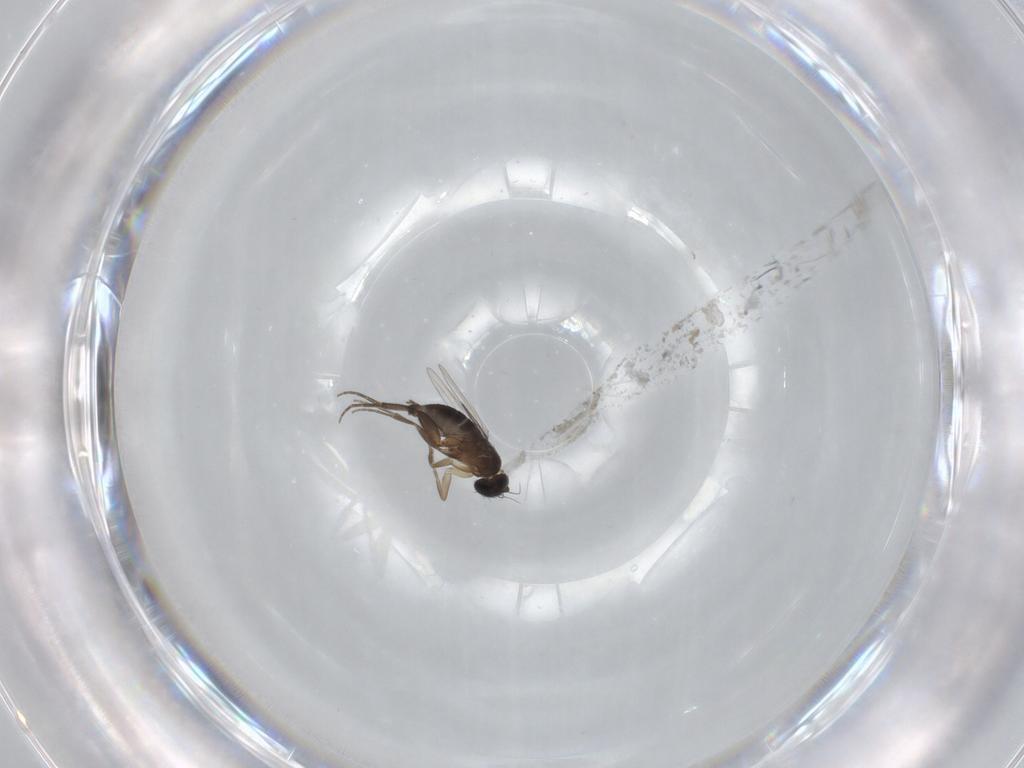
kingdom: Animalia
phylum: Arthropoda
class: Insecta
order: Diptera
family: Phoridae
